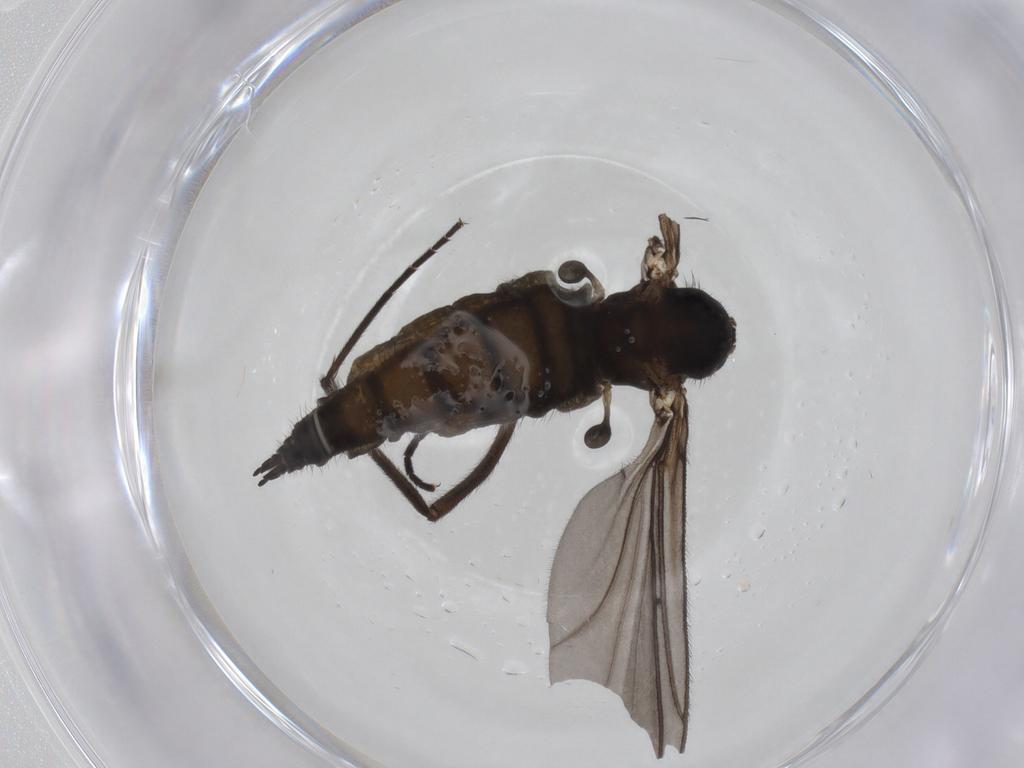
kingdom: Animalia
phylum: Arthropoda
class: Insecta
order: Diptera
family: Sciaridae
